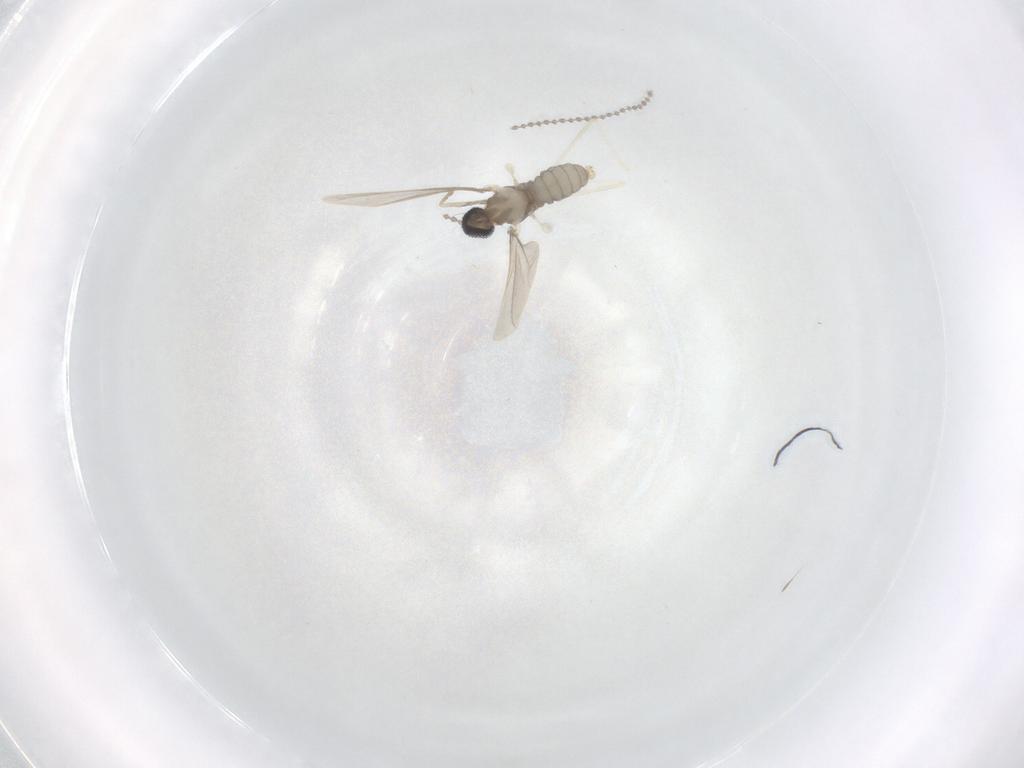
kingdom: Animalia
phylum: Arthropoda
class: Insecta
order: Diptera
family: Cecidomyiidae
